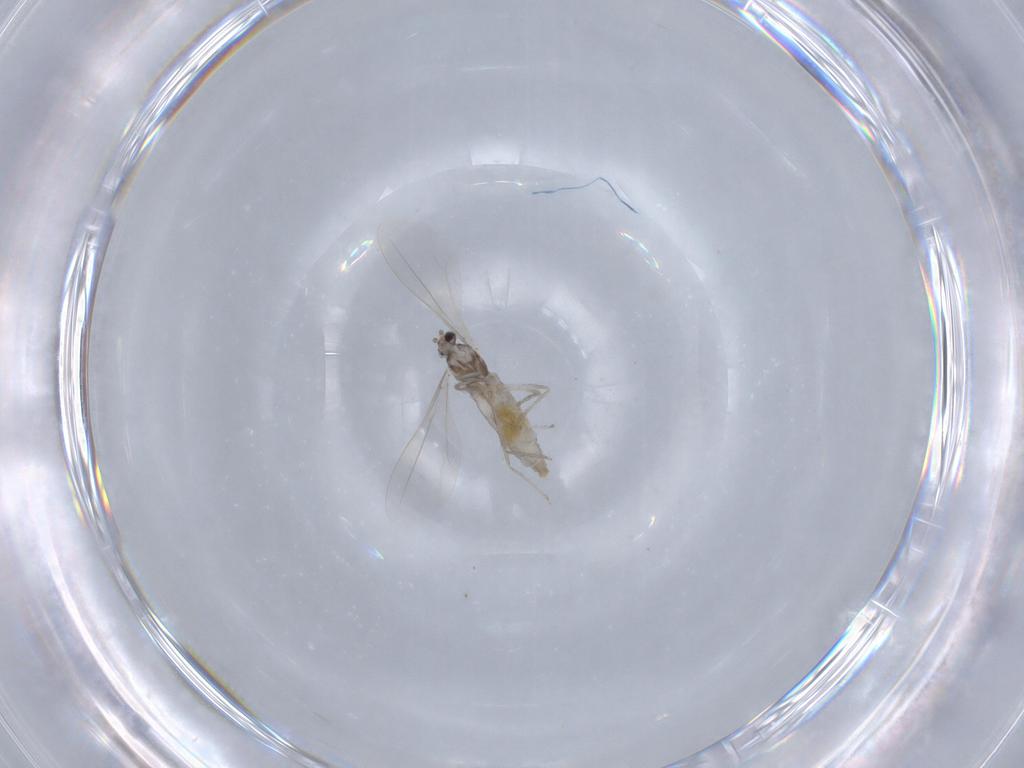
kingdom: Animalia
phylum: Arthropoda
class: Insecta
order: Diptera
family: Cecidomyiidae
